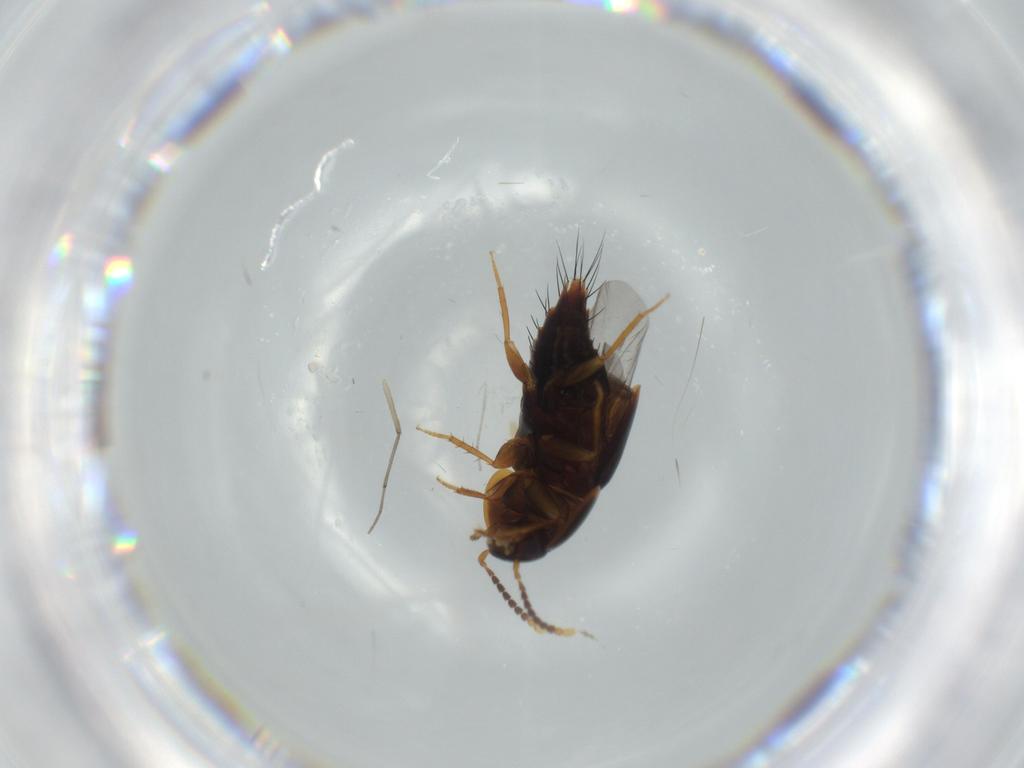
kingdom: Animalia
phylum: Arthropoda
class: Insecta
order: Coleoptera
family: Staphylinidae
